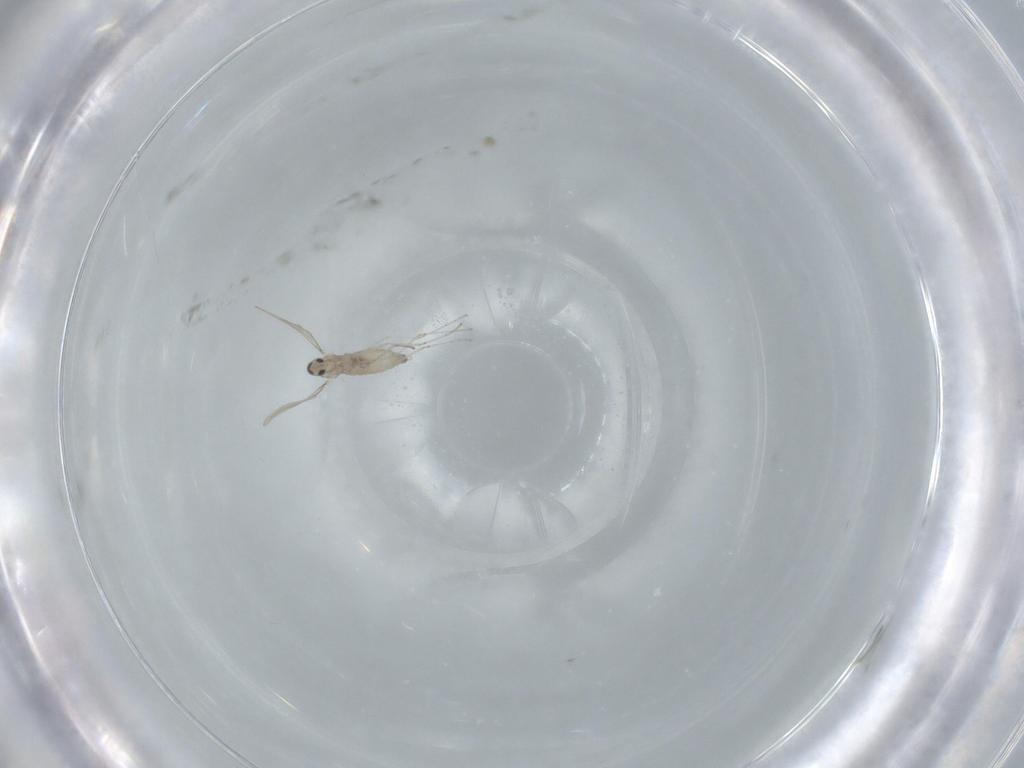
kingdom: Animalia
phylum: Arthropoda
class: Insecta
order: Diptera
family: Cecidomyiidae
